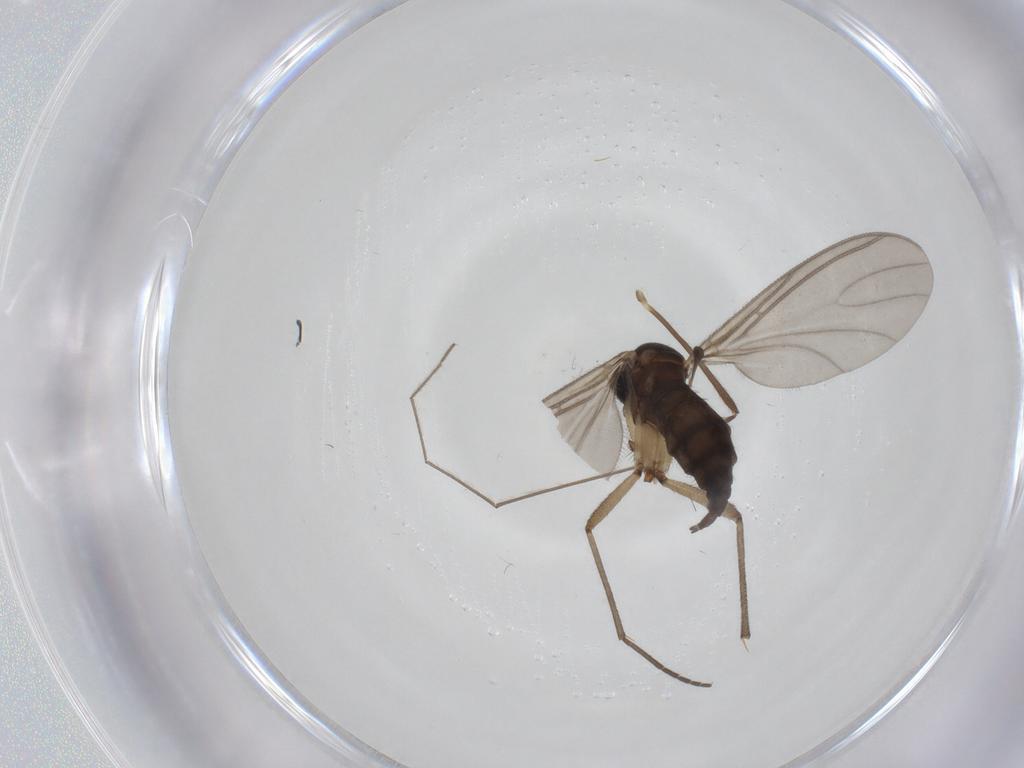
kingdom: Animalia
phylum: Arthropoda
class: Insecta
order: Diptera
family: Sciaridae
